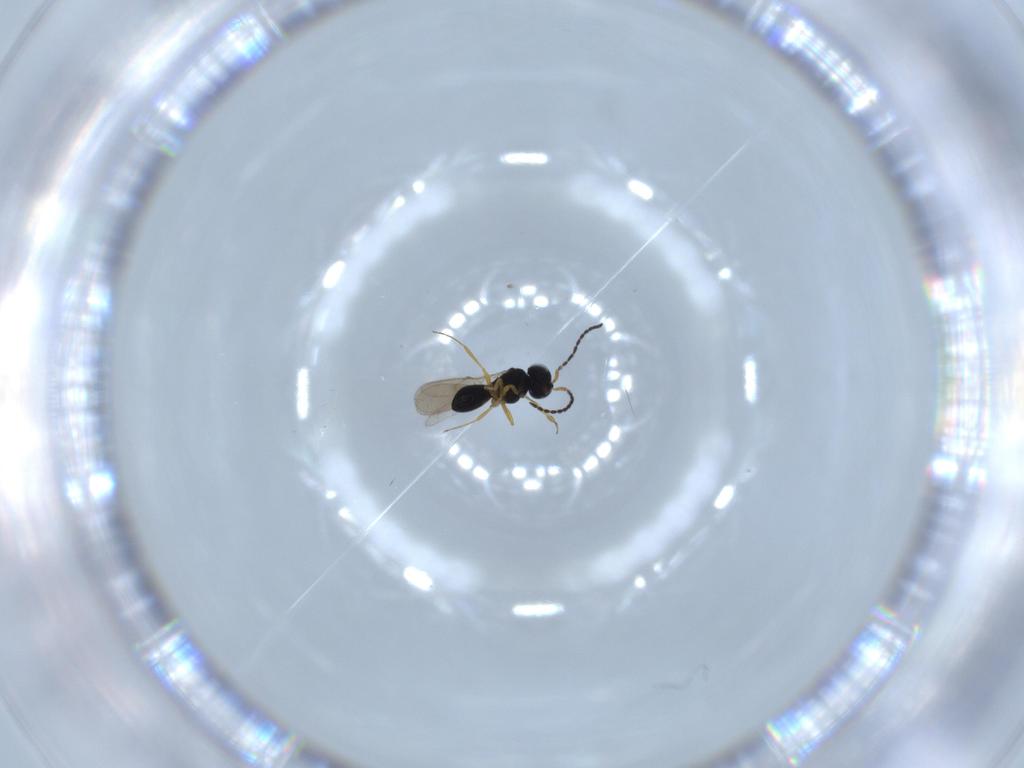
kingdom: Animalia
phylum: Arthropoda
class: Insecta
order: Hymenoptera
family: Scelionidae
